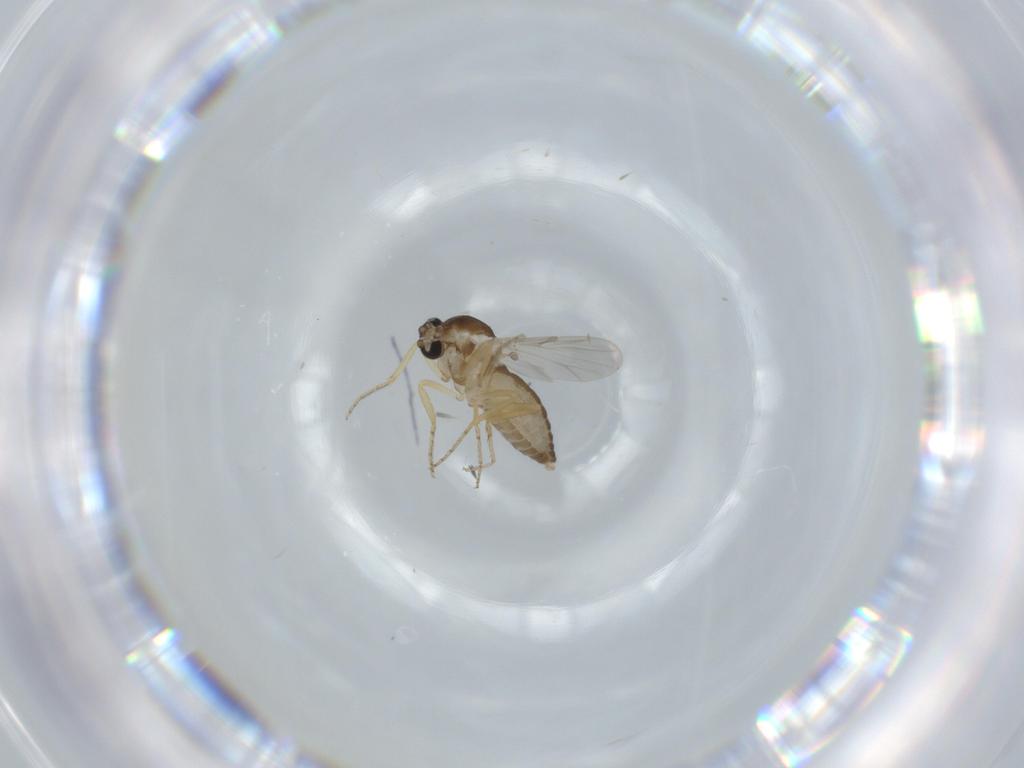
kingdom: Animalia
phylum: Arthropoda
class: Insecta
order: Diptera
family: Ceratopogonidae
